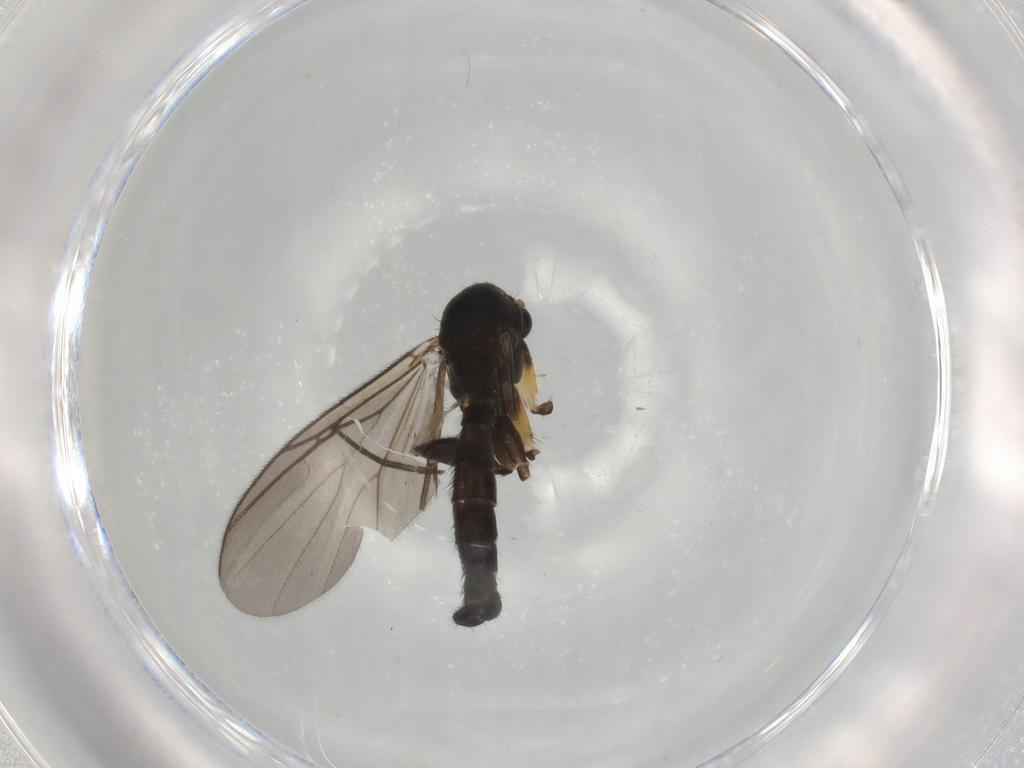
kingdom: Animalia
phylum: Arthropoda
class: Insecta
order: Diptera
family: Mycetophilidae
